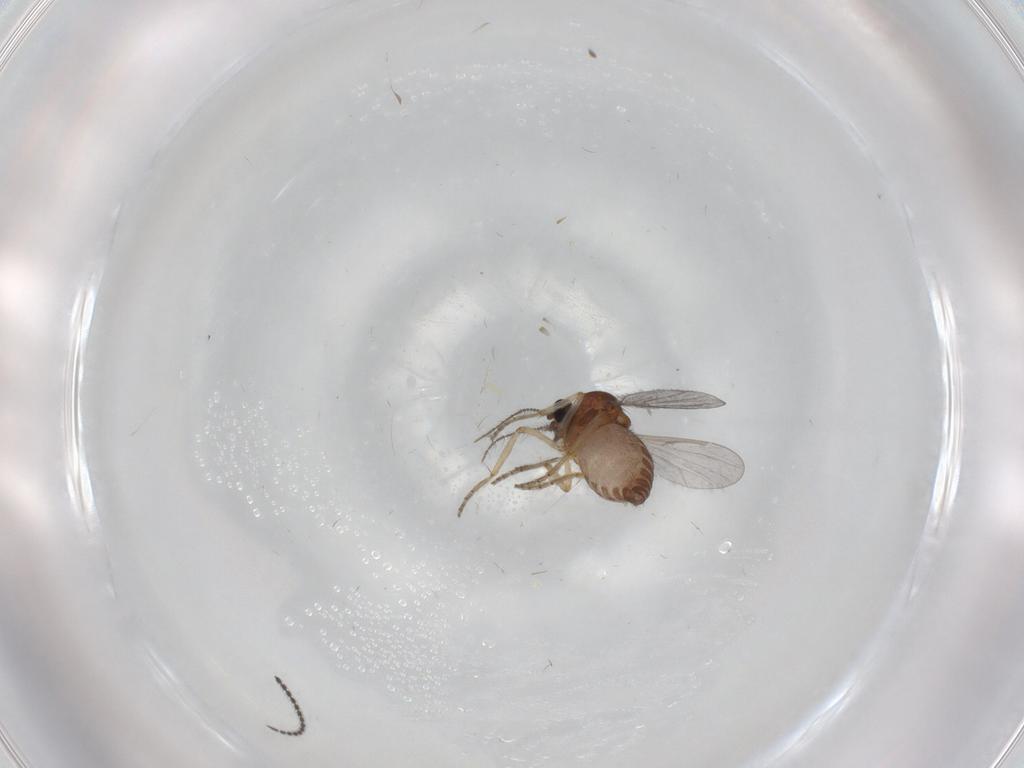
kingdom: Animalia
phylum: Arthropoda
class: Insecta
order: Diptera
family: Ceratopogonidae
